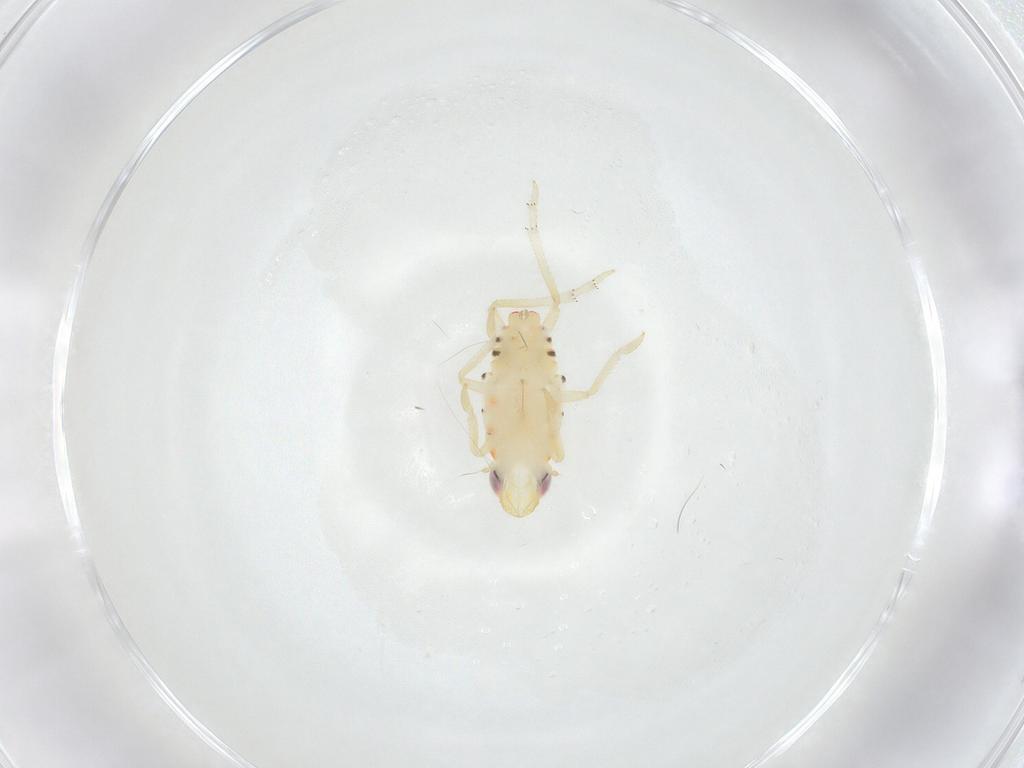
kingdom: Animalia
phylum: Arthropoda
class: Insecta
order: Hemiptera
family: Tropiduchidae
